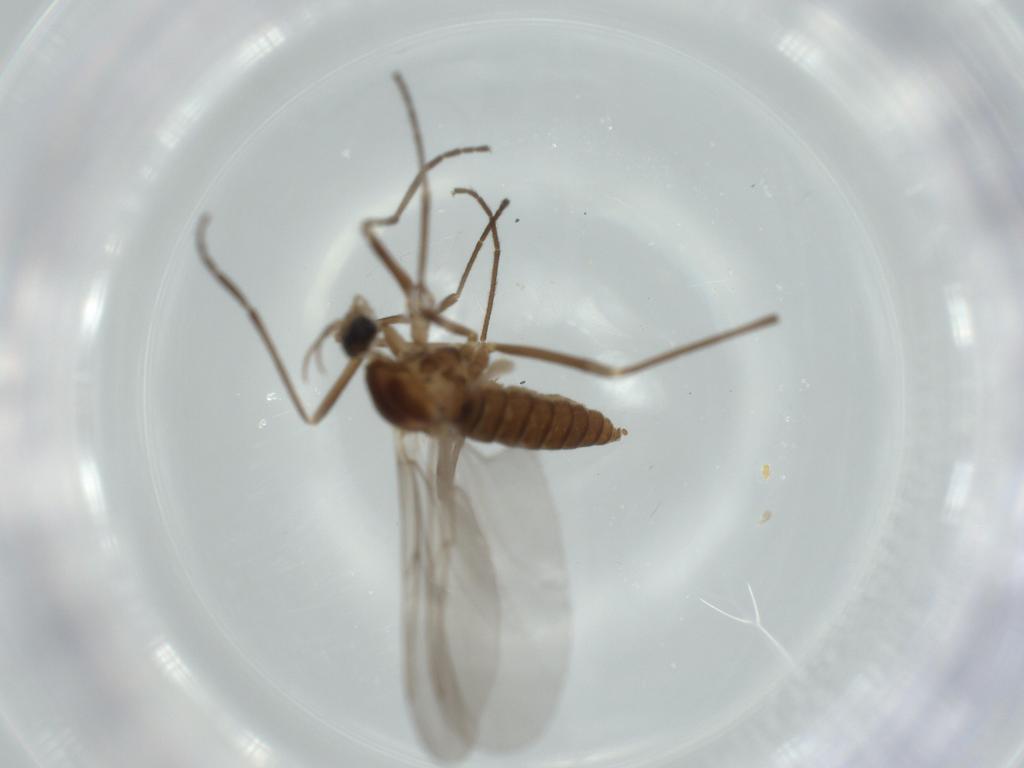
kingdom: Animalia
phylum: Arthropoda
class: Insecta
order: Diptera
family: Cecidomyiidae
